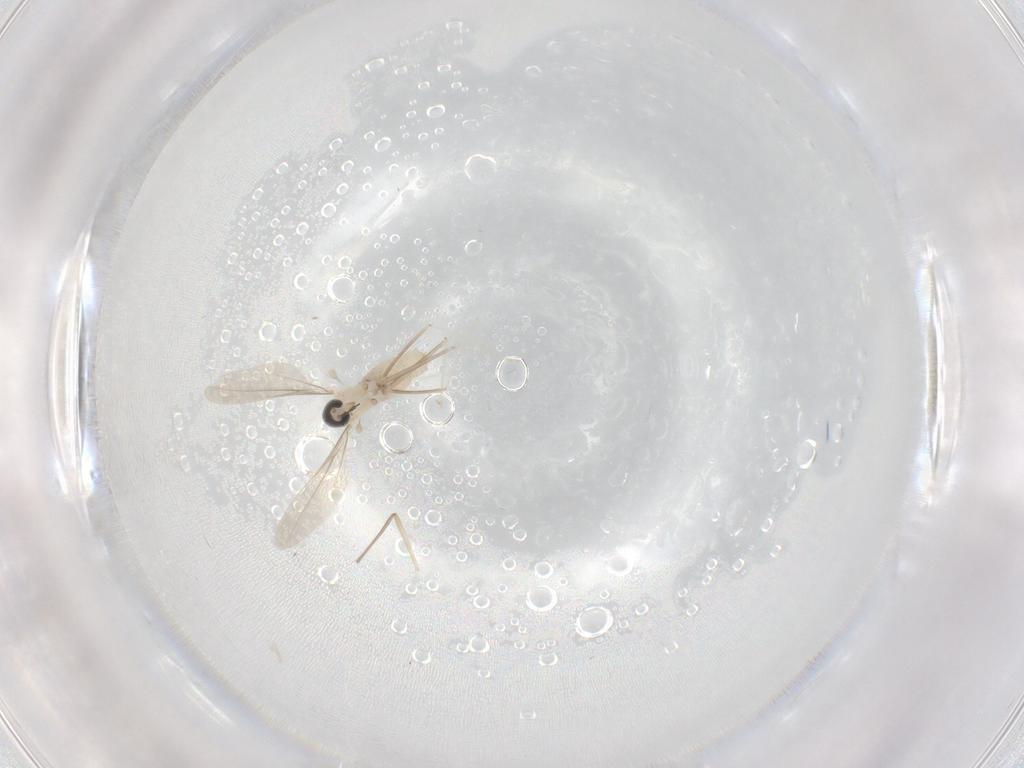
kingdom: Animalia
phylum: Arthropoda
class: Insecta
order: Diptera
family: Cecidomyiidae
